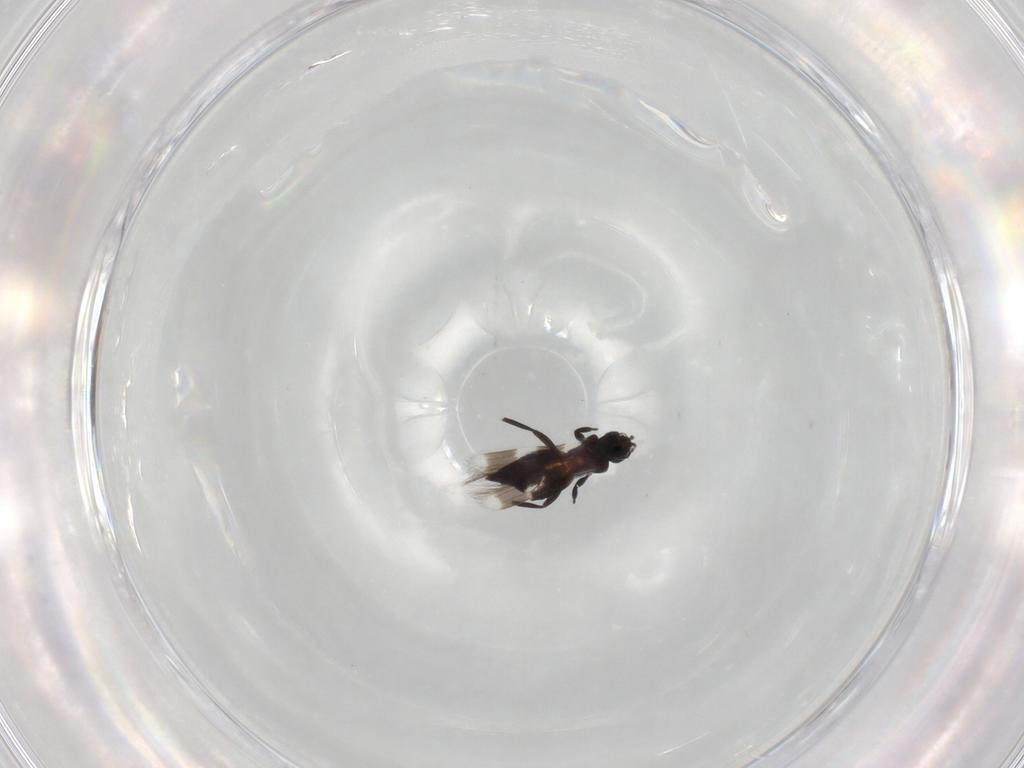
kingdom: Animalia
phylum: Arthropoda
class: Insecta
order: Thysanoptera
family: Aeolothripidae
